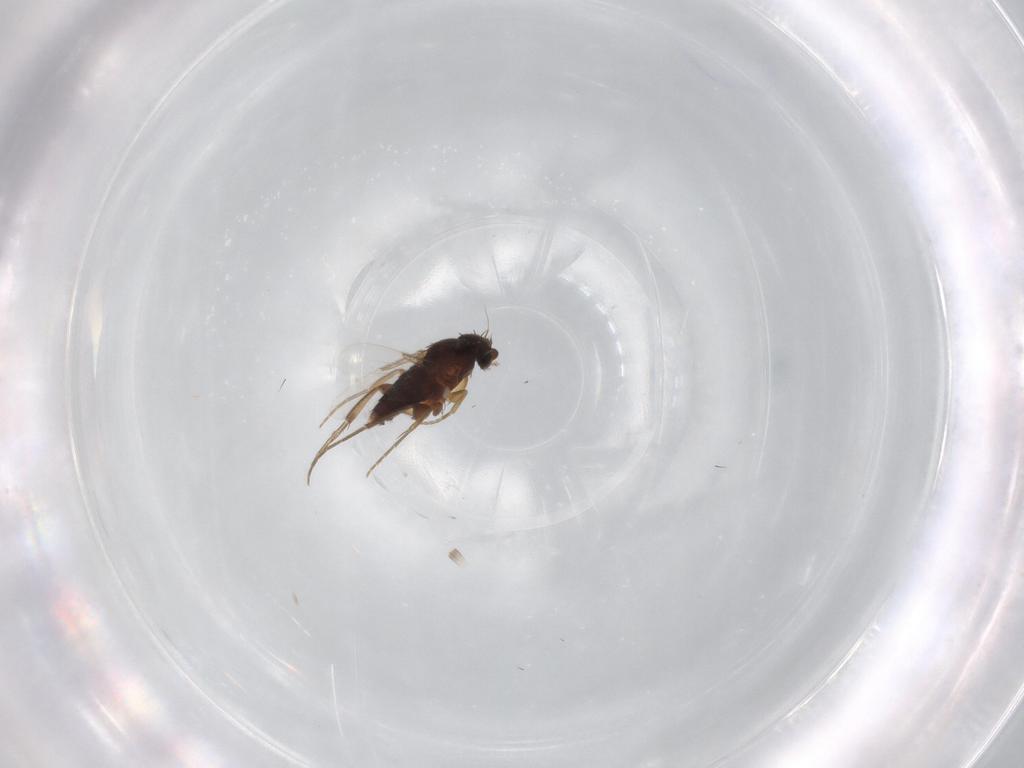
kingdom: Animalia
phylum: Arthropoda
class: Insecta
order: Diptera
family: Phoridae
